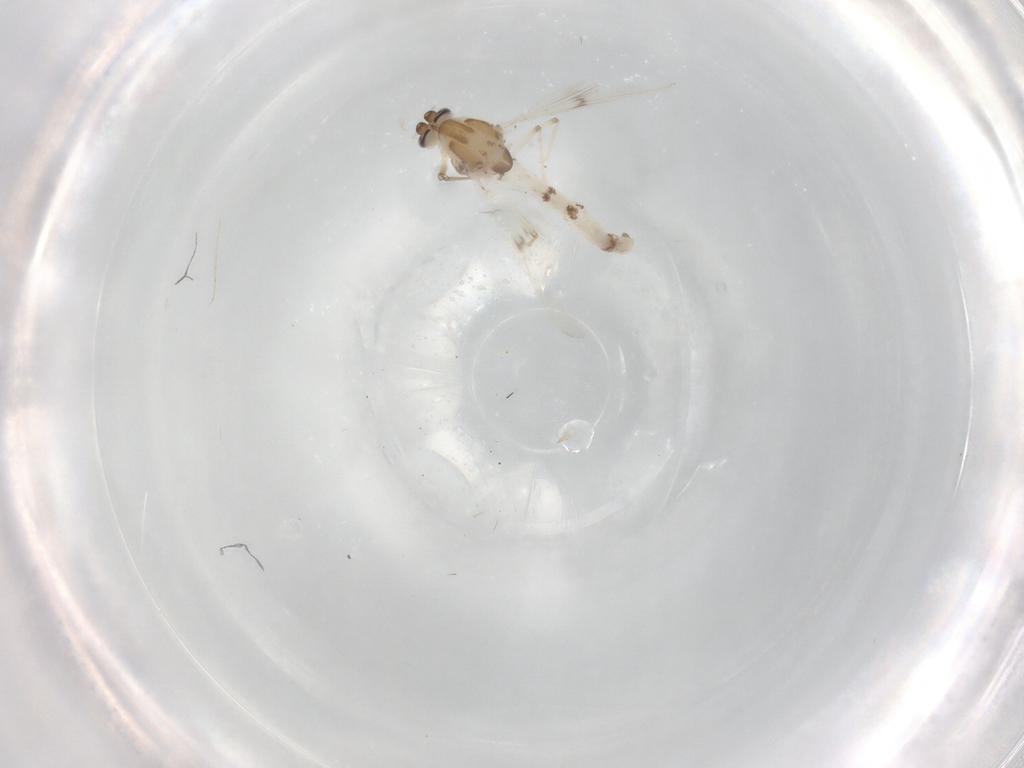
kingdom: Animalia
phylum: Arthropoda
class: Insecta
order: Diptera
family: Chironomidae
